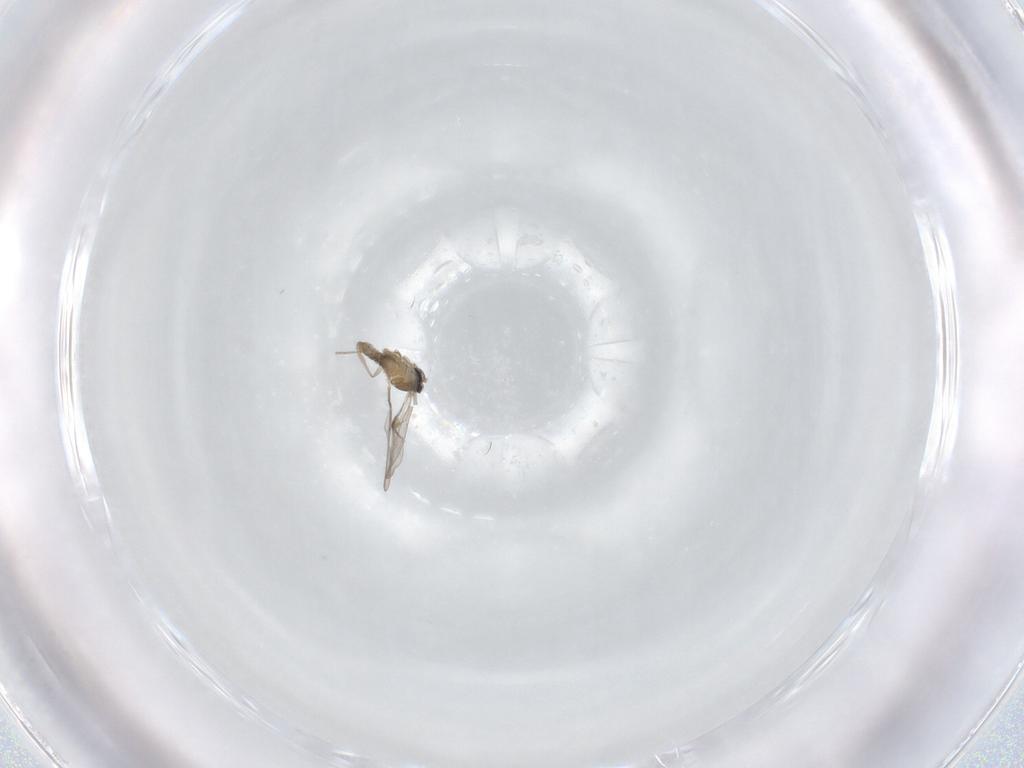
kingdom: Animalia
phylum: Arthropoda
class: Insecta
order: Diptera
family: Cecidomyiidae
